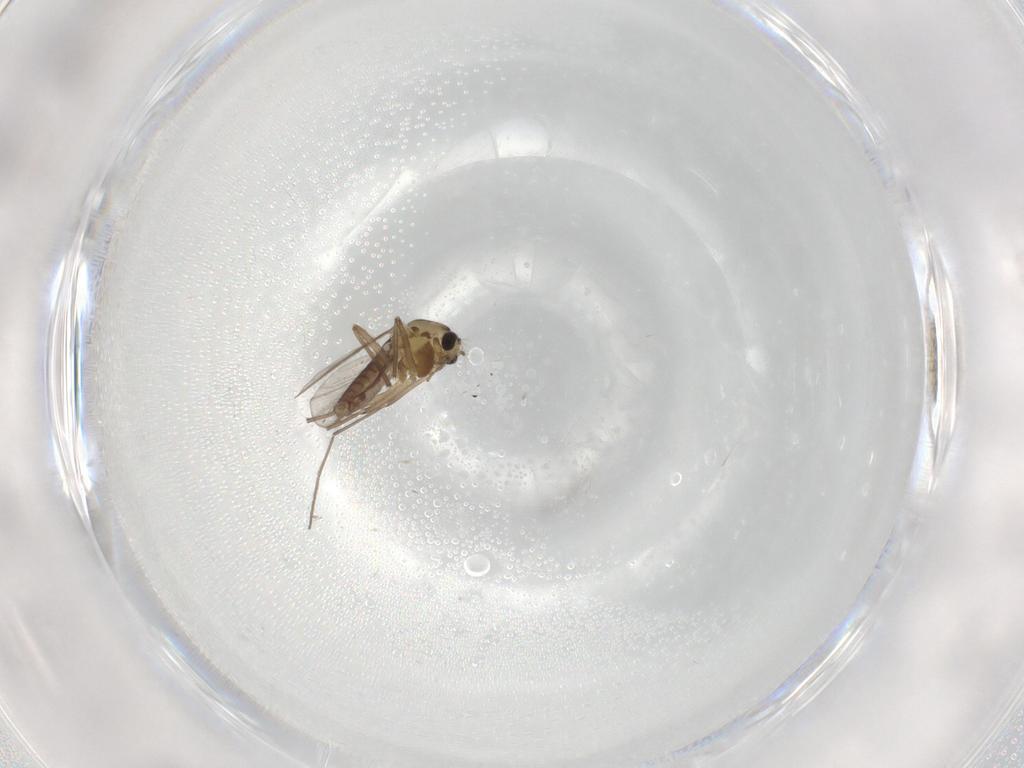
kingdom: Animalia
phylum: Arthropoda
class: Insecta
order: Diptera
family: Chironomidae
